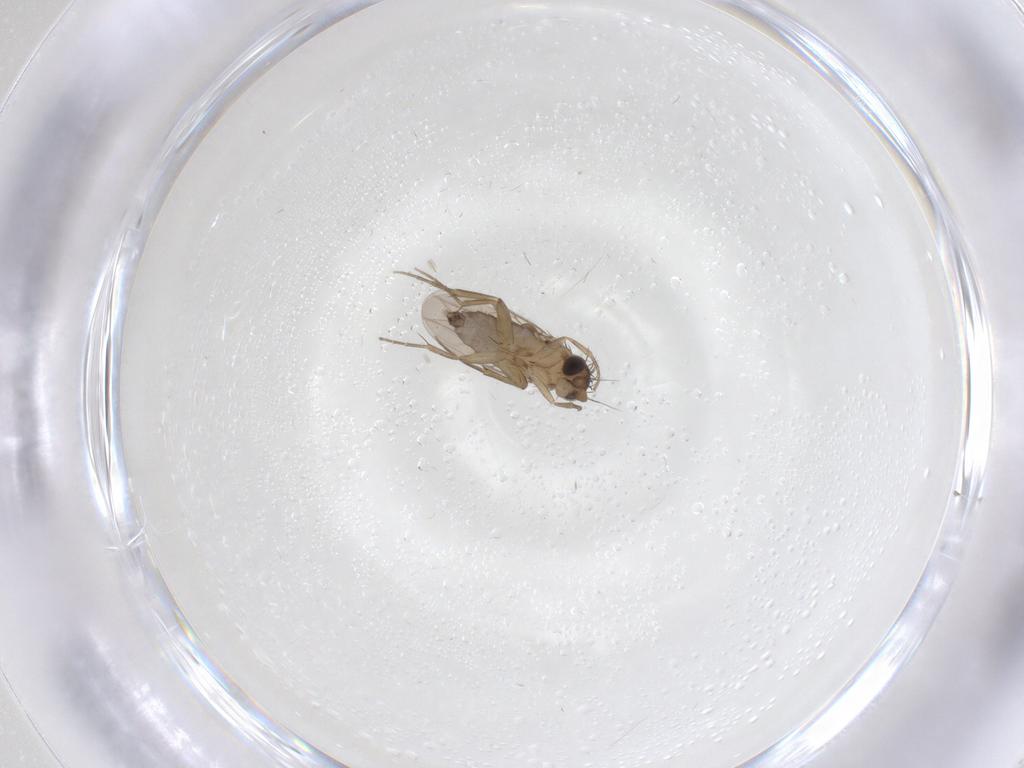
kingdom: Animalia
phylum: Arthropoda
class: Insecta
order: Diptera
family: Phoridae
